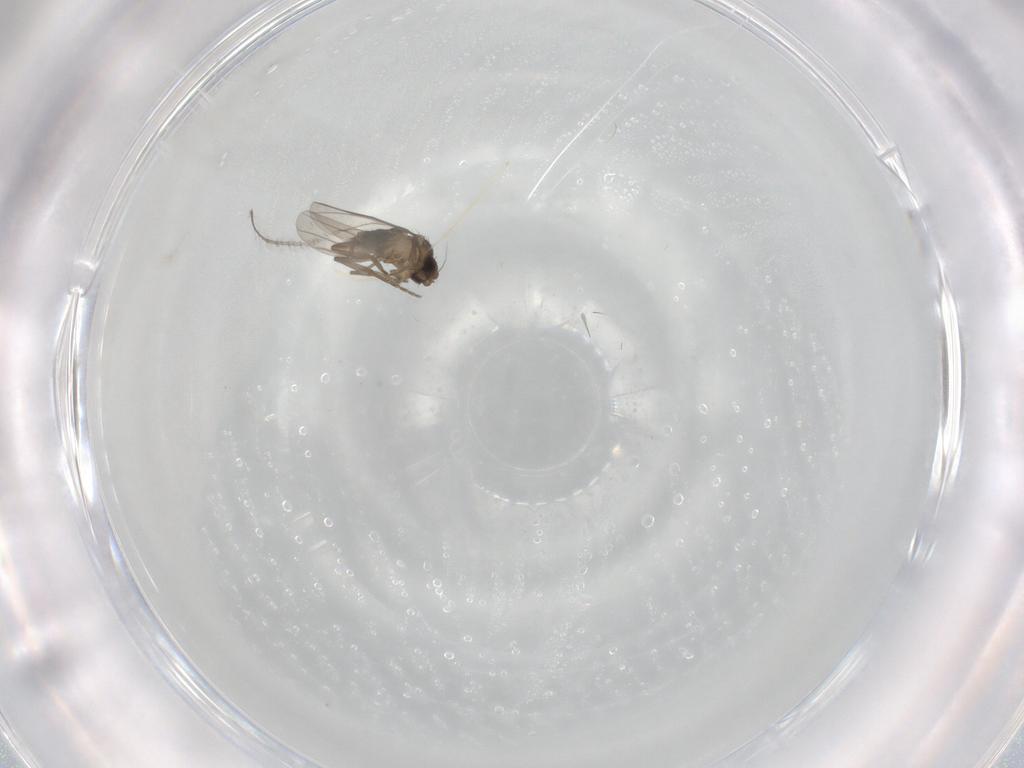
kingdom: Animalia
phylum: Arthropoda
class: Insecta
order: Diptera
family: Chironomidae
